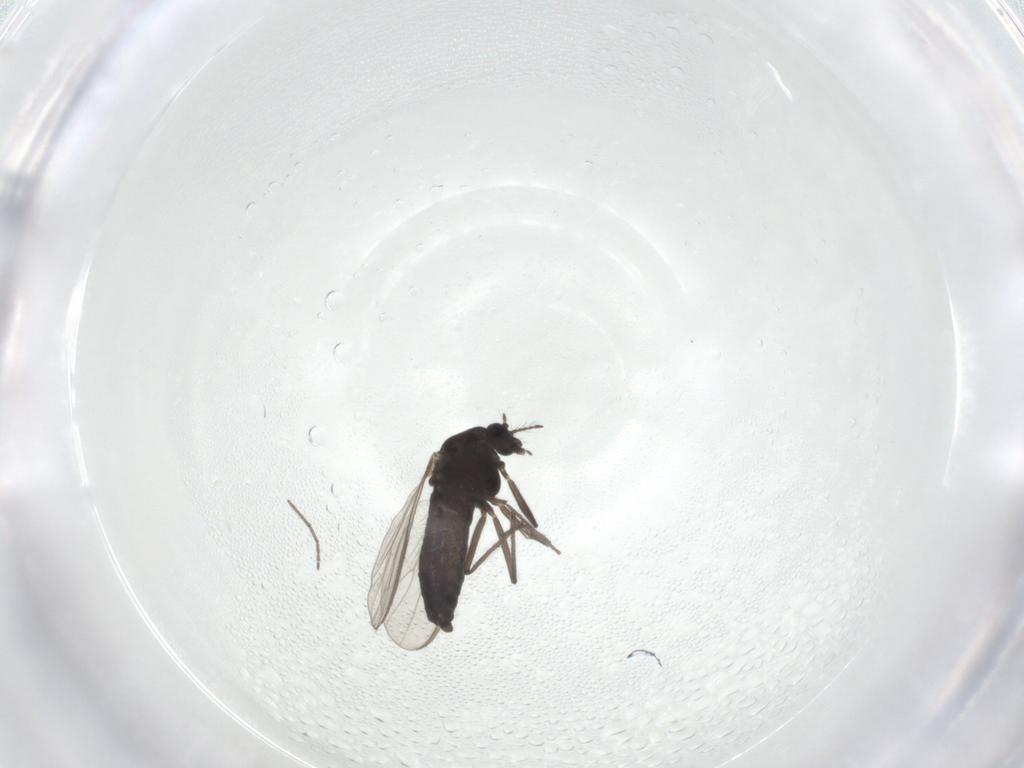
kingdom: Animalia
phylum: Arthropoda
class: Insecta
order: Diptera
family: Chironomidae
